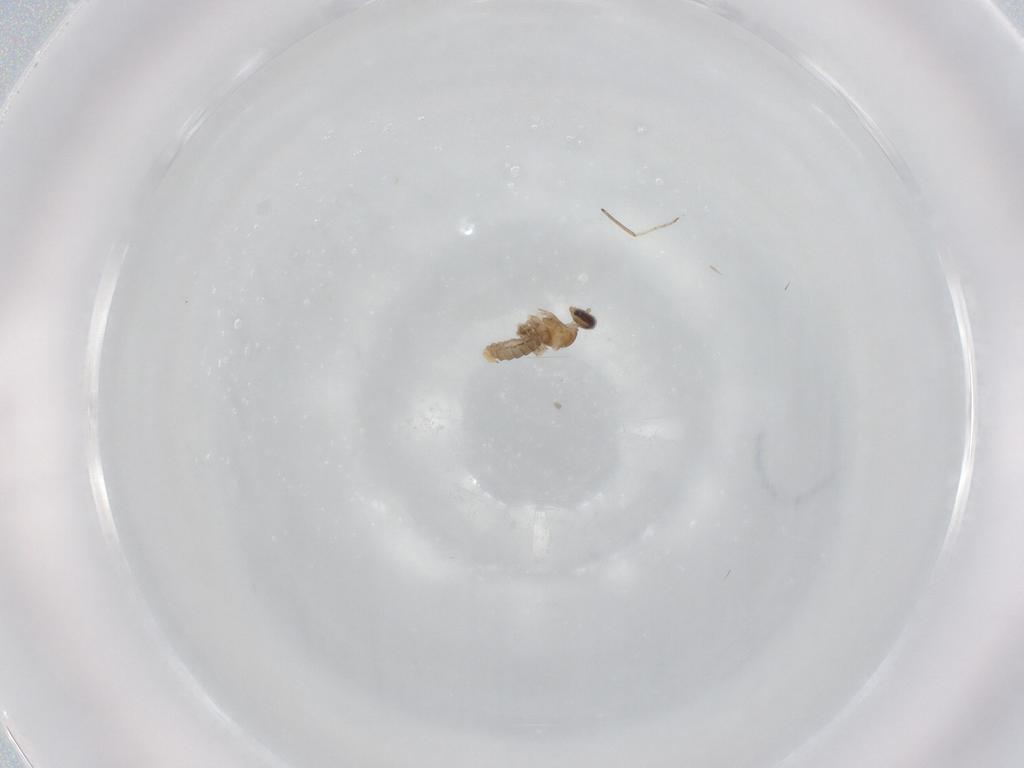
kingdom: Animalia
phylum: Arthropoda
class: Insecta
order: Diptera
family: Cecidomyiidae
